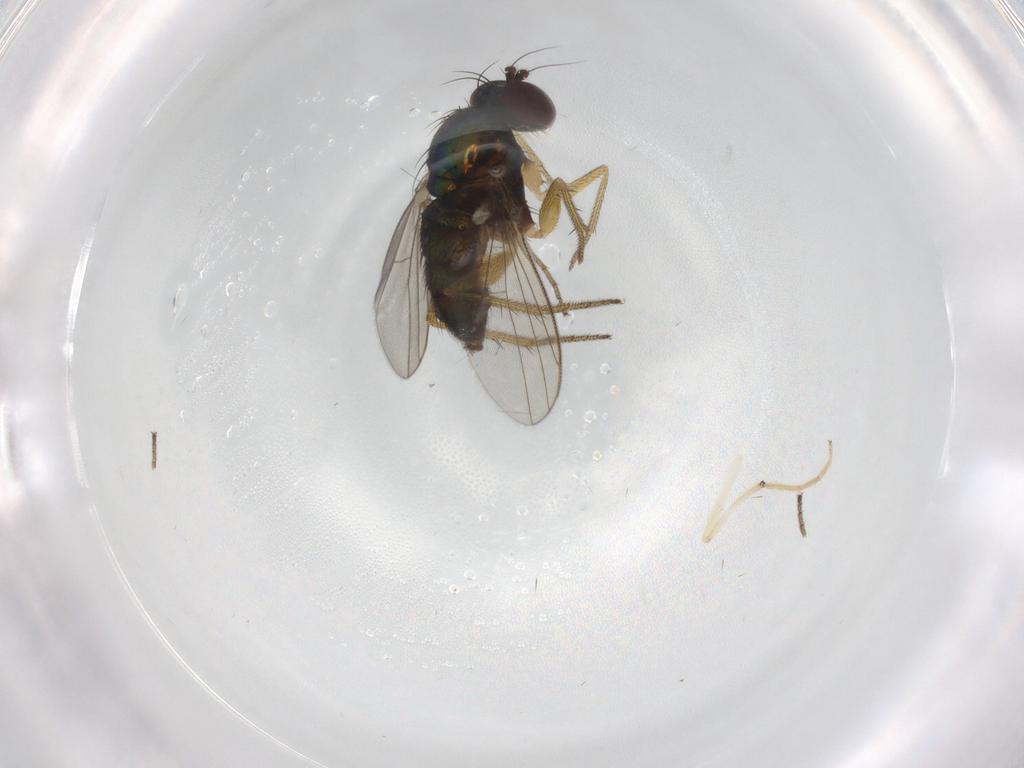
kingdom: Animalia
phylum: Arthropoda
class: Insecta
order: Diptera
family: Dolichopodidae
